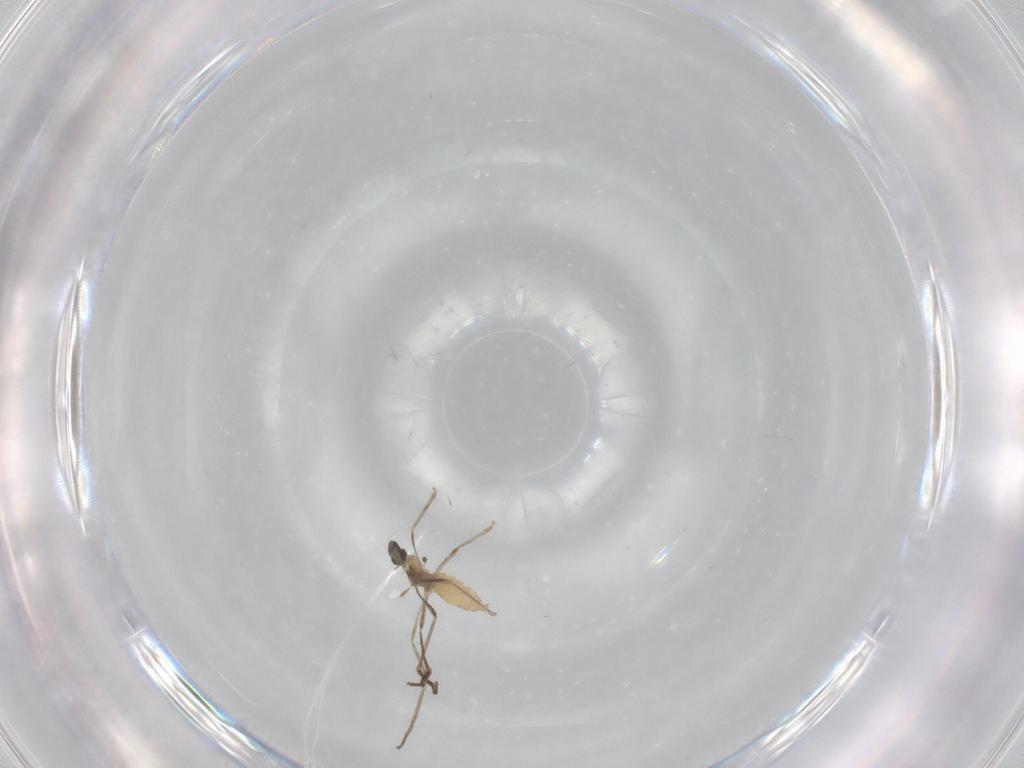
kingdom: Animalia
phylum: Arthropoda
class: Insecta
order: Diptera
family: Cecidomyiidae
